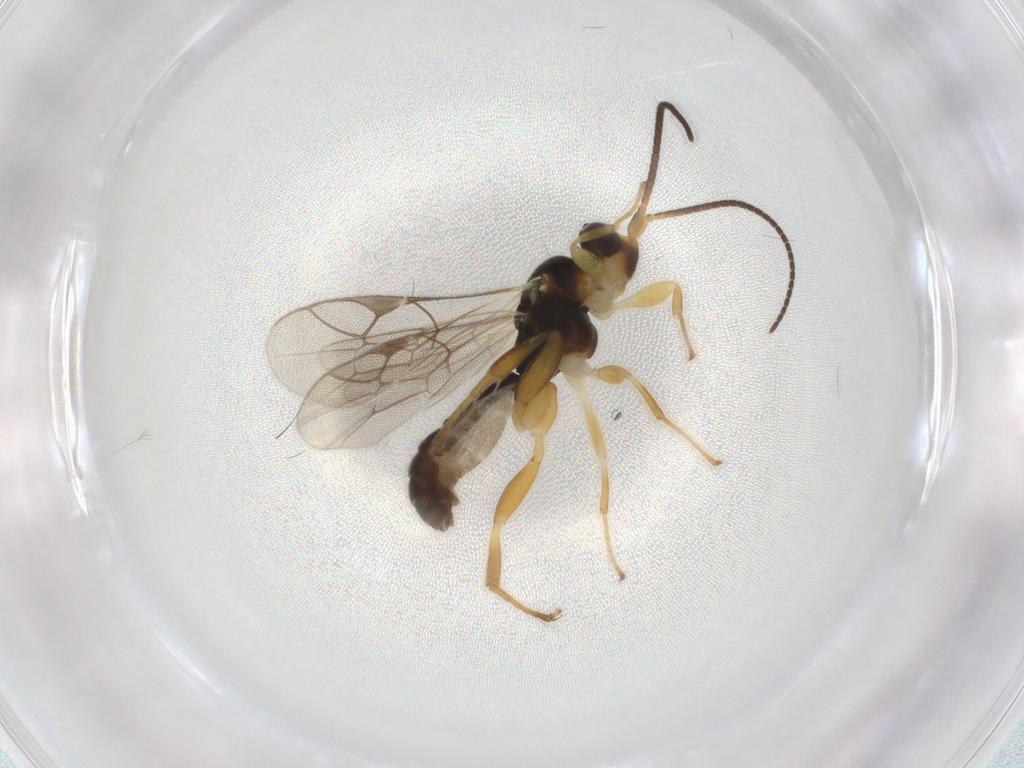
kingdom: Animalia
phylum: Arthropoda
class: Insecta
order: Hymenoptera
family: Ichneumonidae
